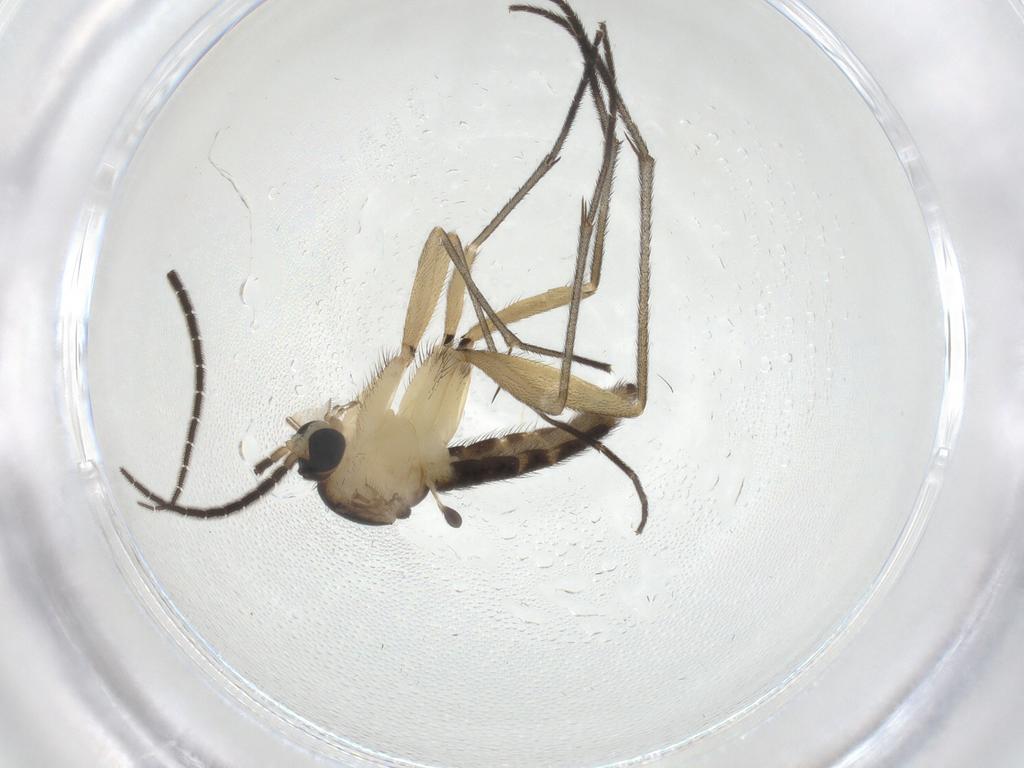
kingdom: Animalia
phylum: Arthropoda
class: Insecta
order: Diptera
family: Sciaridae
